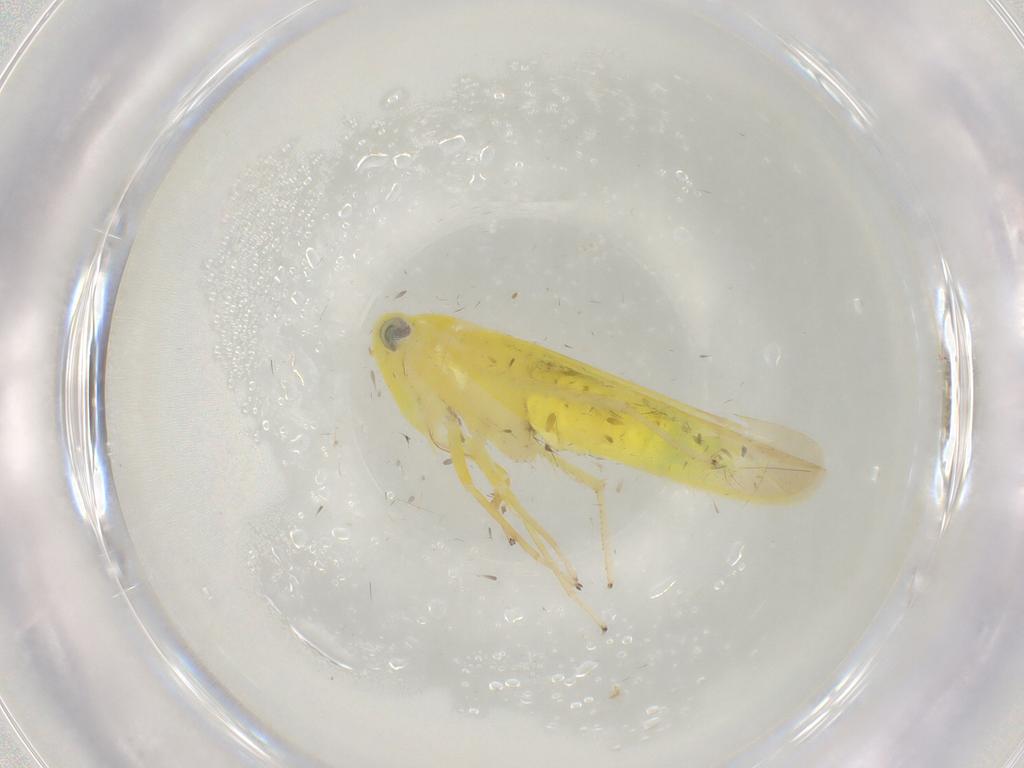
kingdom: Animalia
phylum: Arthropoda
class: Insecta
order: Hemiptera
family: Cicadellidae
